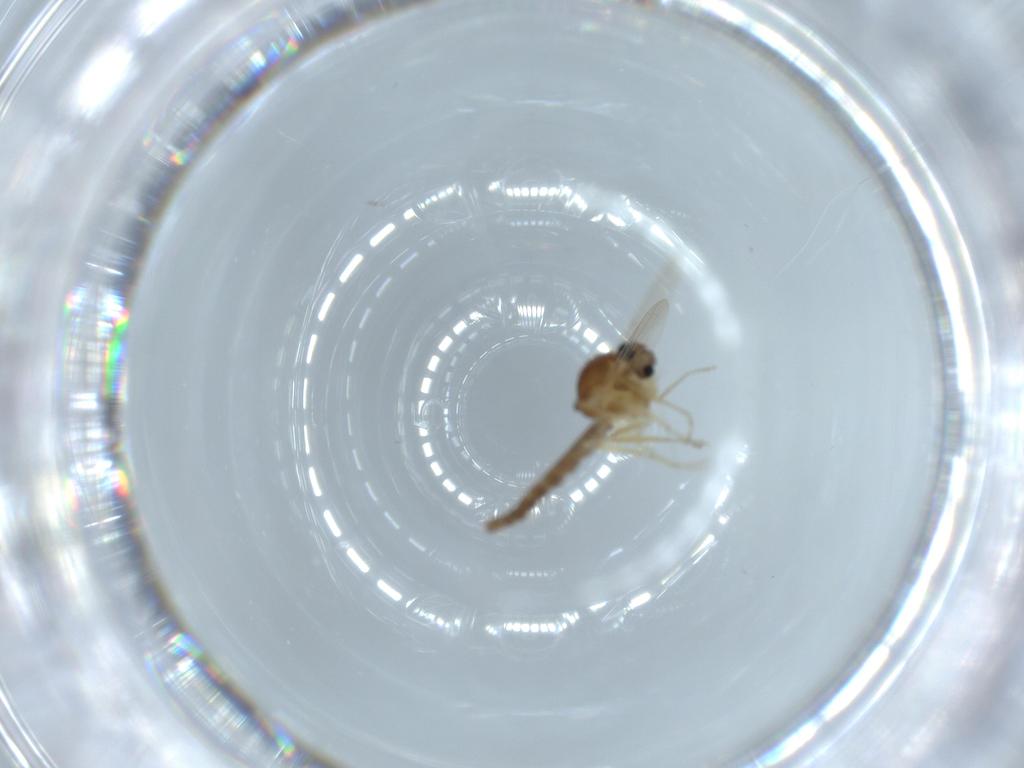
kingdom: Animalia
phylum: Arthropoda
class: Insecta
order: Diptera
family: Ceratopogonidae
